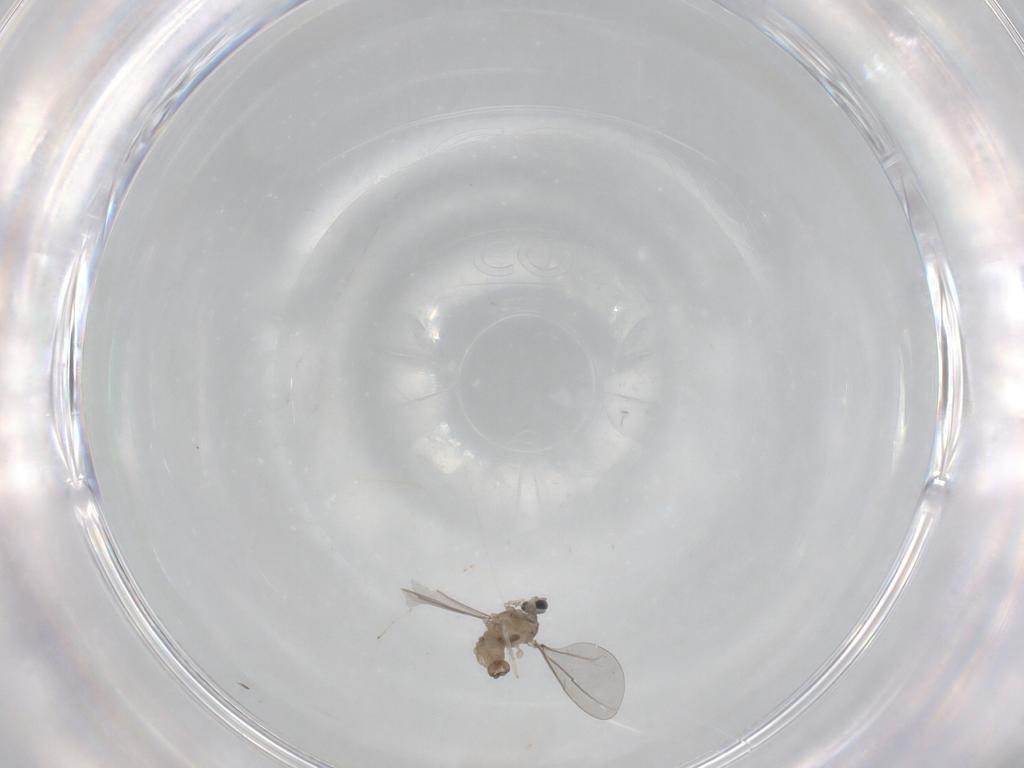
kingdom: Animalia
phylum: Arthropoda
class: Insecta
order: Diptera
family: Cecidomyiidae
